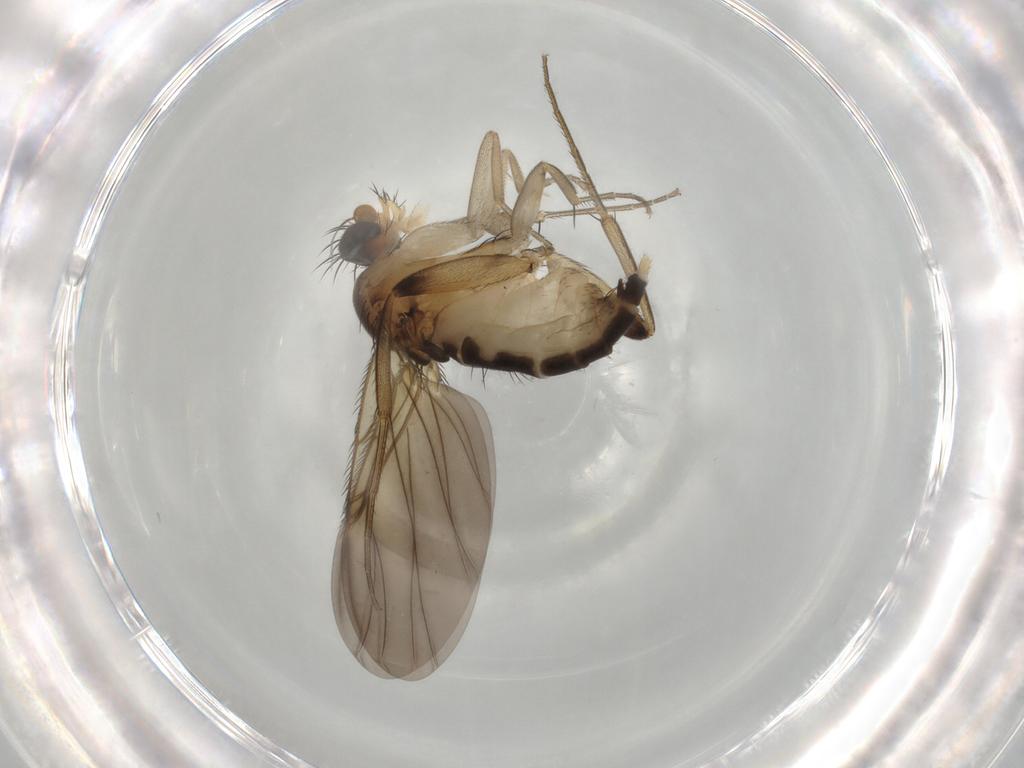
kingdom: Animalia
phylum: Arthropoda
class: Insecta
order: Diptera
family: Phoridae
